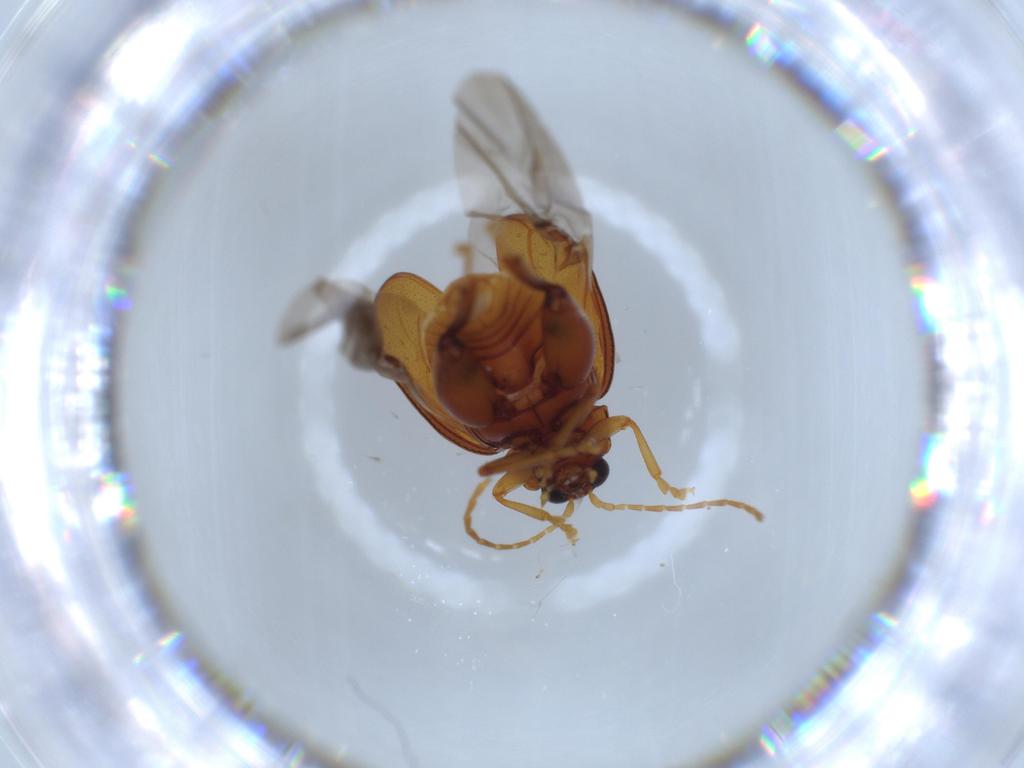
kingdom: Animalia
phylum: Arthropoda
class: Insecta
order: Coleoptera
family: Chrysomelidae
